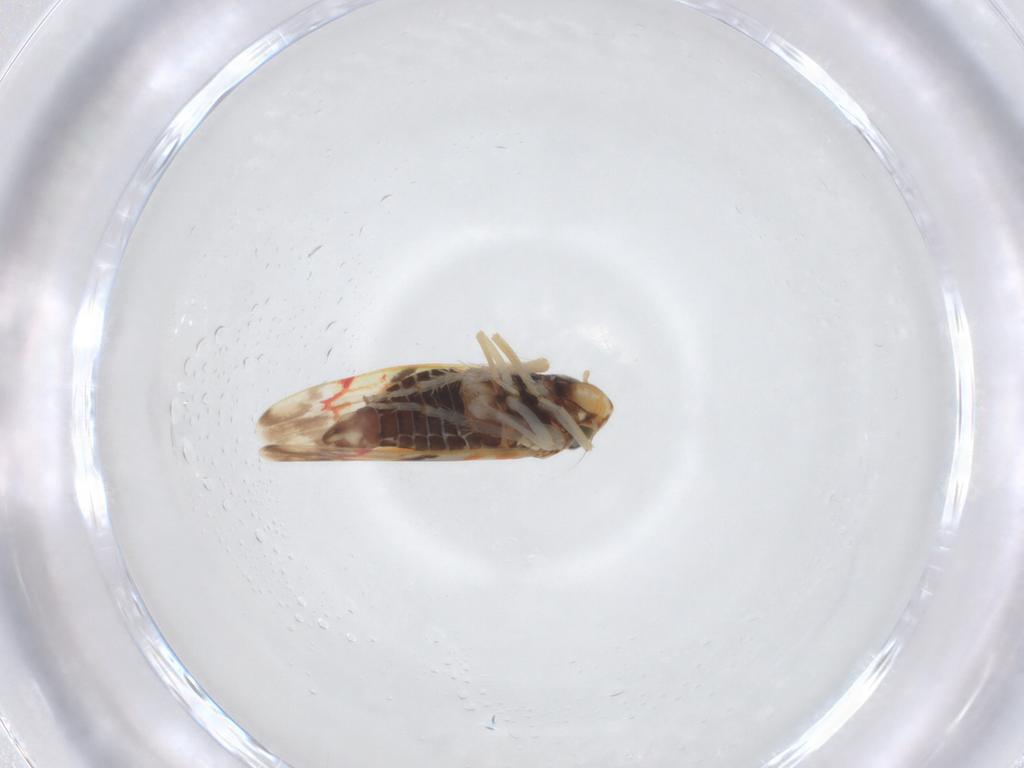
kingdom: Animalia
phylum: Arthropoda
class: Insecta
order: Hemiptera
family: Cicadellidae
